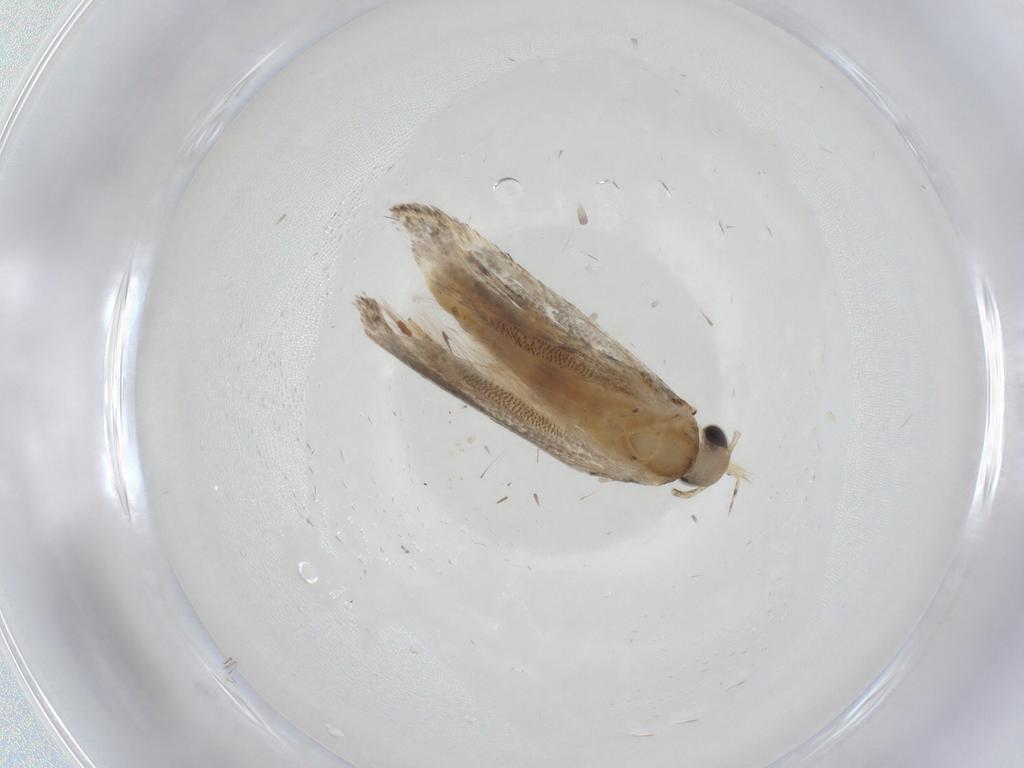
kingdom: Animalia
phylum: Arthropoda
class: Insecta
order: Lepidoptera
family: Gelechiidae
